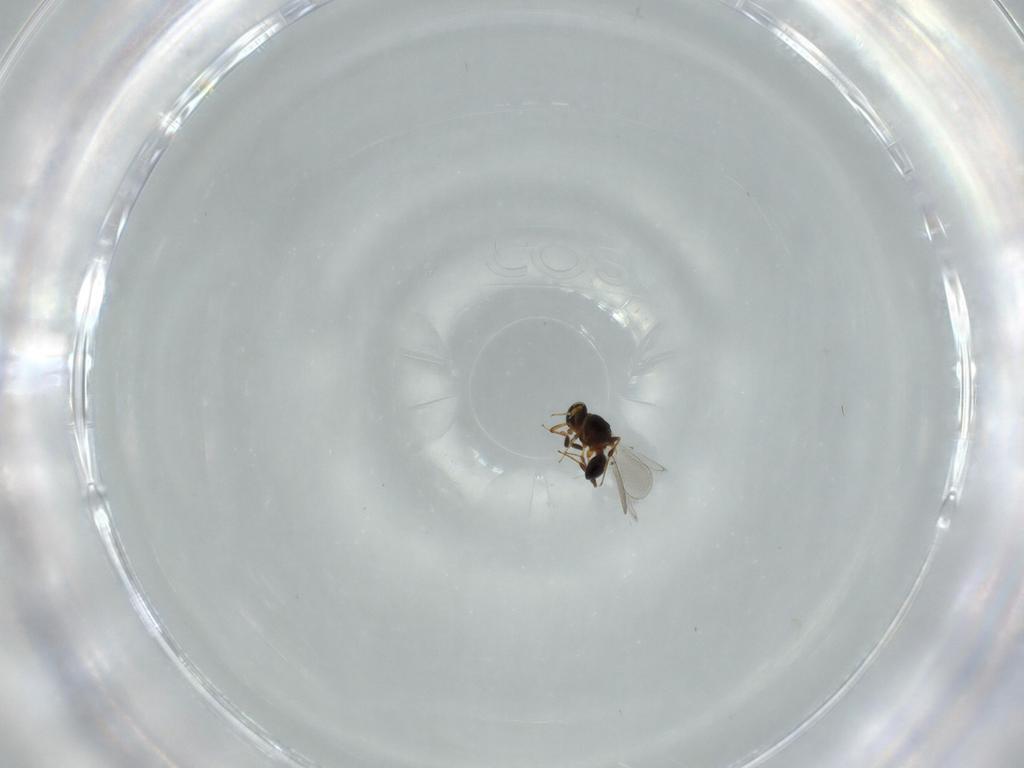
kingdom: Animalia
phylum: Arthropoda
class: Insecta
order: Hymenoptera
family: Platygastridae
